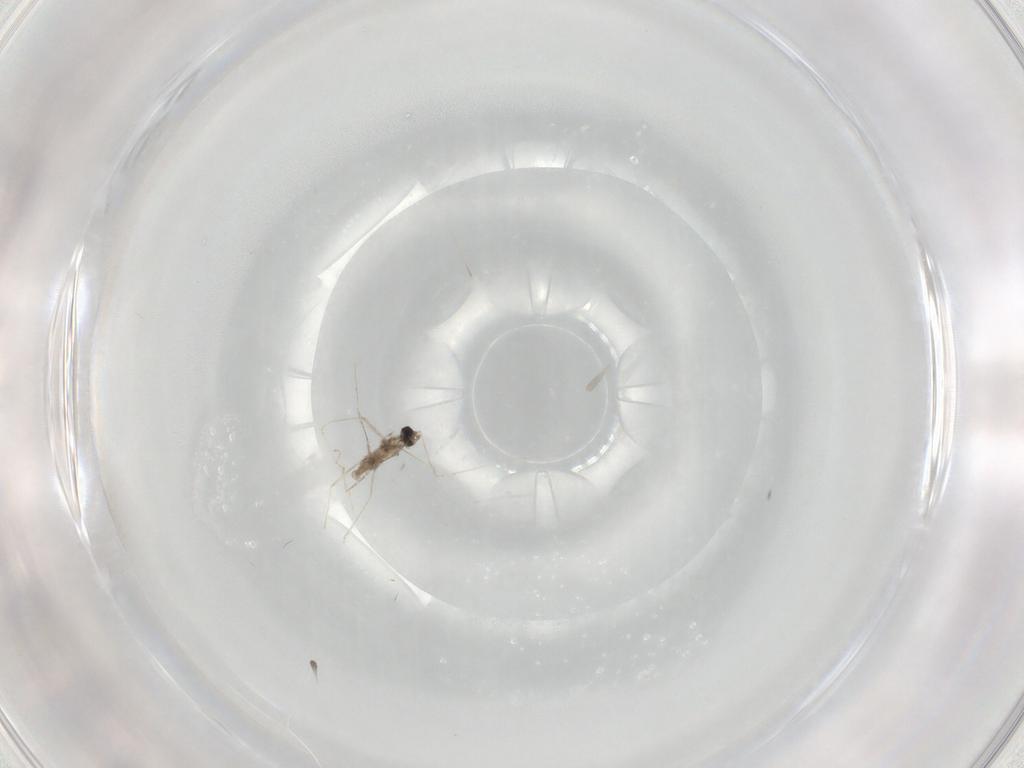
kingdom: Animalia
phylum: Arthropoda
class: Insecta
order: Diptera
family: Cecidomyiidae
